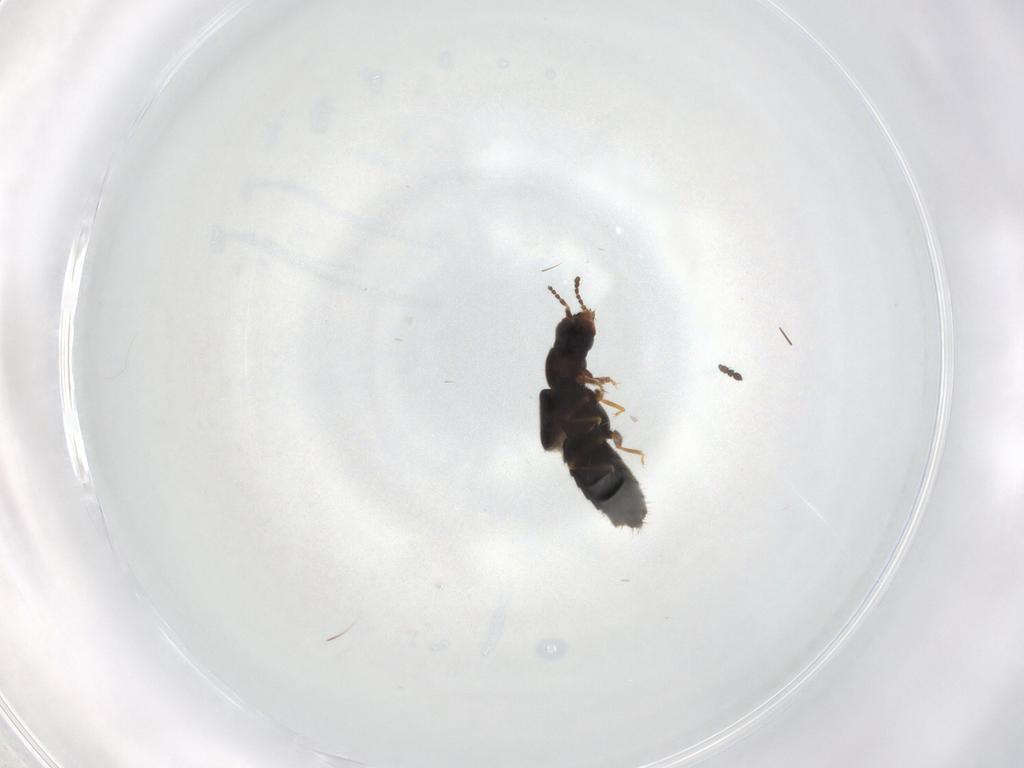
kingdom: Animalia
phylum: Arthropoda
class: Insecta
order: Coleoptera
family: Staphylinidae
